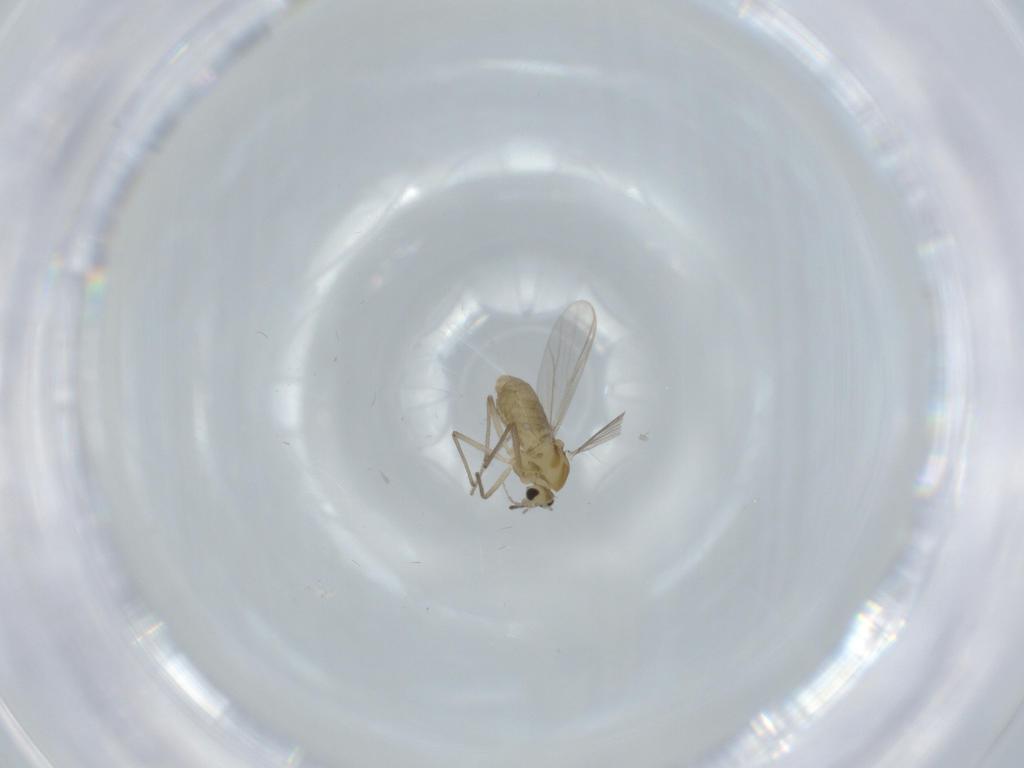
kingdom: Animalia
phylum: Arthropoda
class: Insecta
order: Diptera
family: Chironomidae
